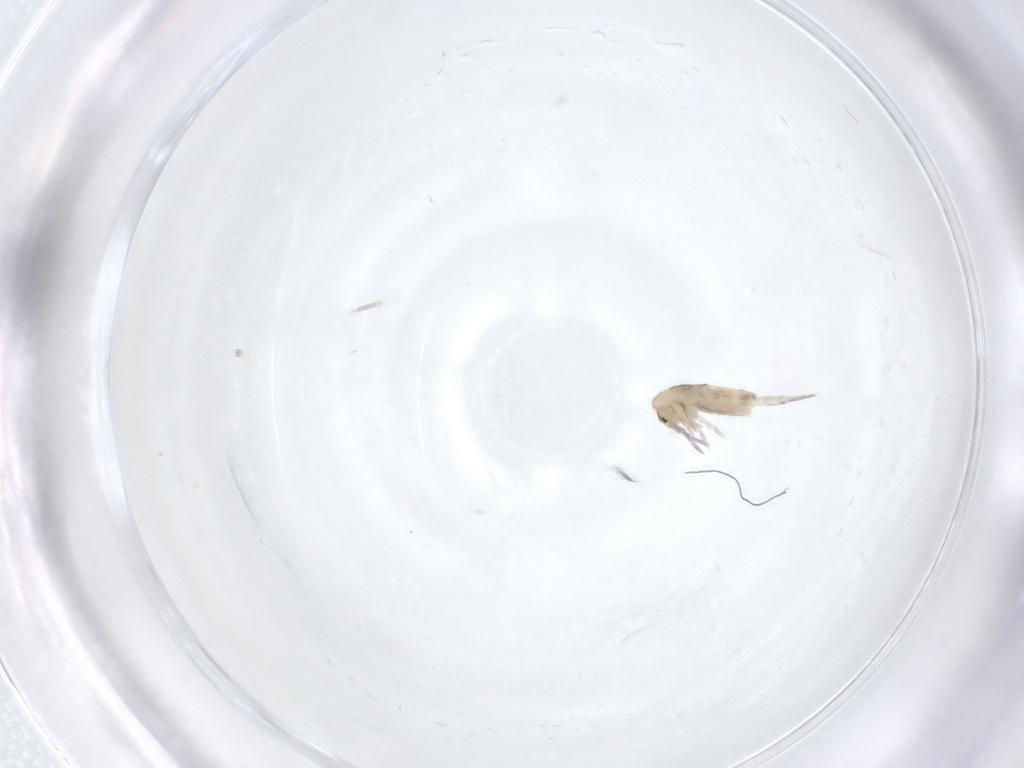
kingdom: Animalia
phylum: Arthropoda
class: Collembola
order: Entomobryomorpha
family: Entomobryidae
